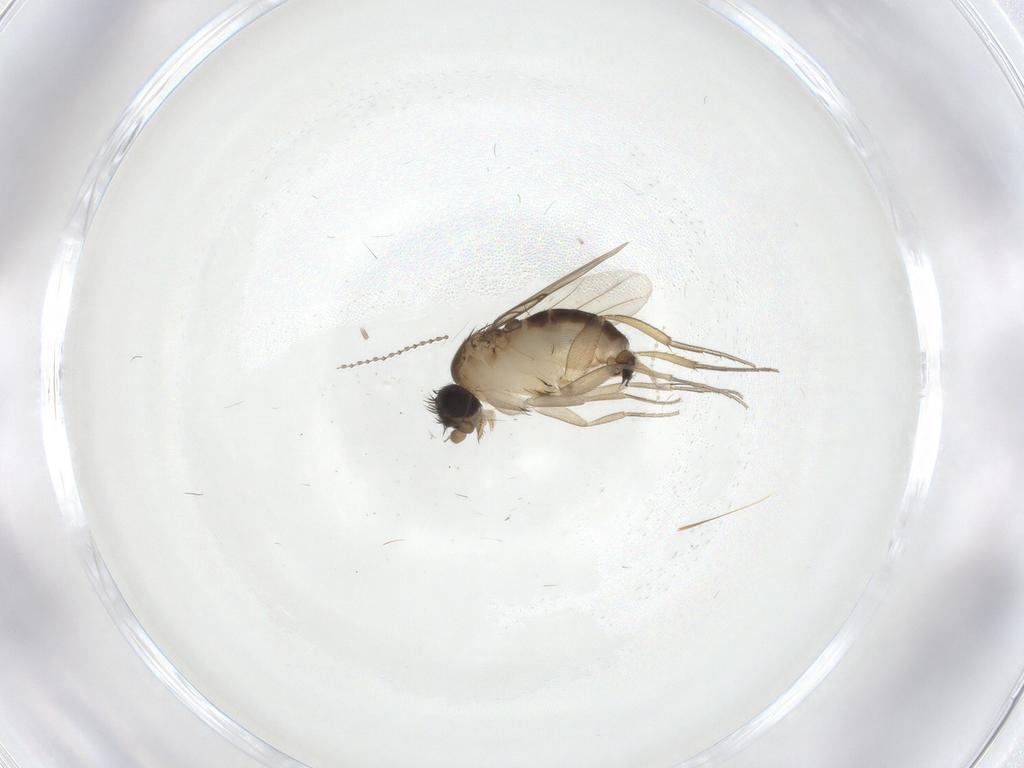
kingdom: Animalia
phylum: Arthropoda
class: Insecta
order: Diptera
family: Phoridae
